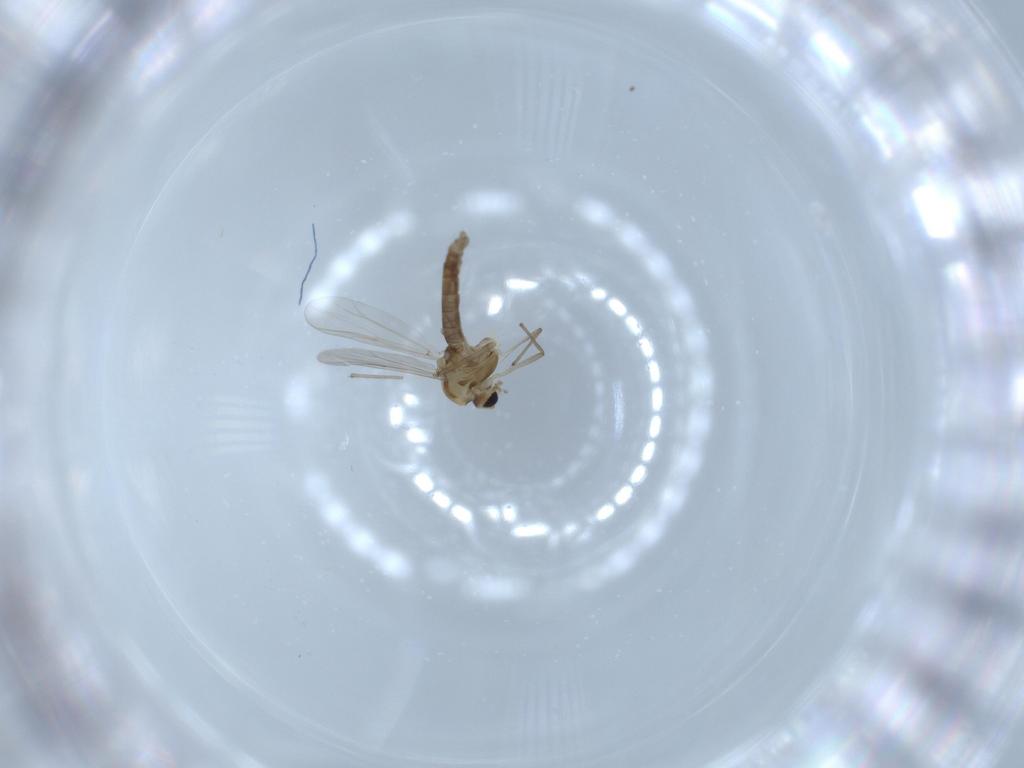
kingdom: Animalia
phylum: Arthropoda
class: Insecta
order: Diptera
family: Chironomidae
